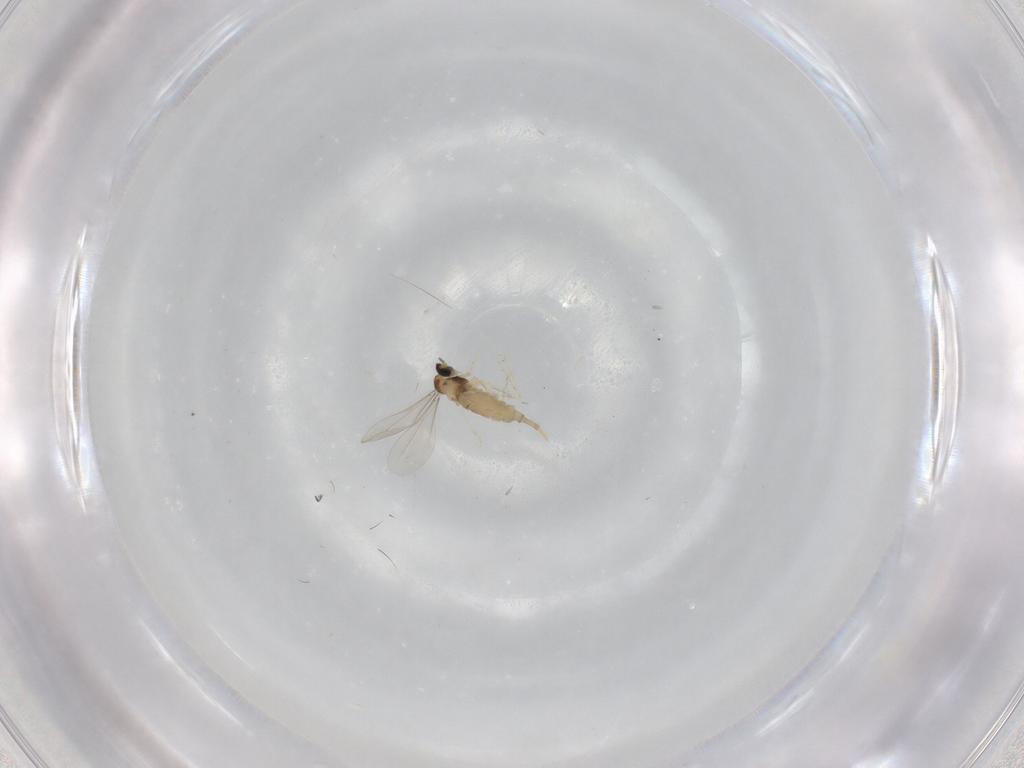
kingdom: Animalia
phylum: Arthropoda
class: Insecta
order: Diptera
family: Cecidomyiidae
